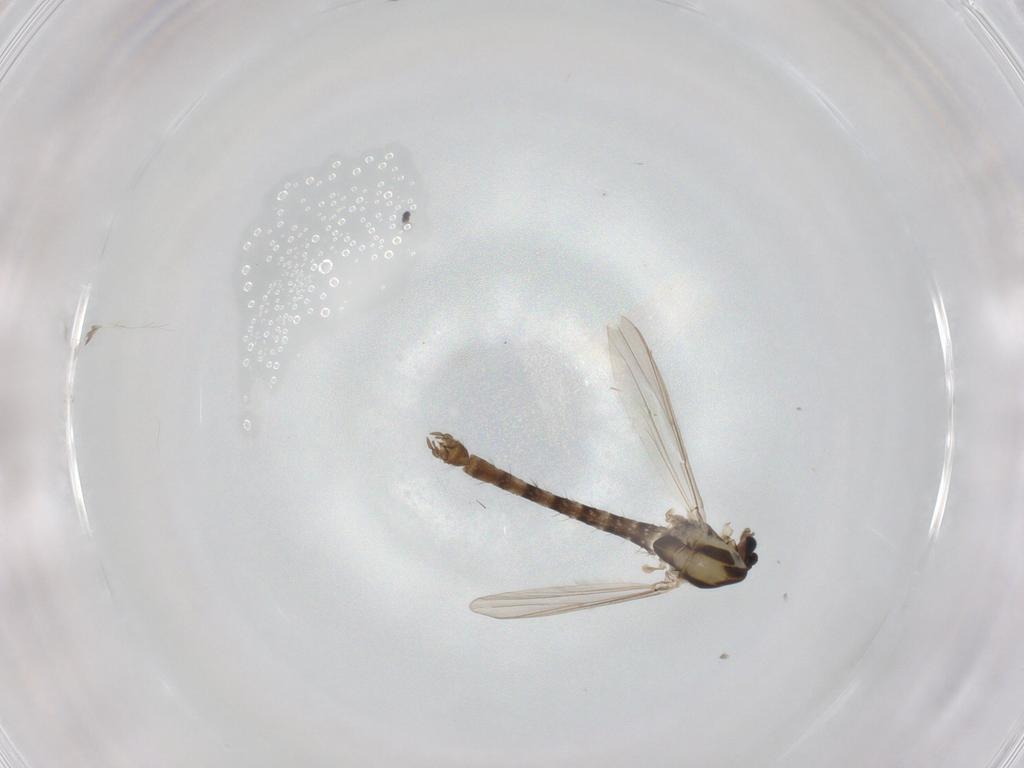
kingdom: Animalia
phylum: Arthropoda
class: Insecta
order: Diptera
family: Chironomidae
